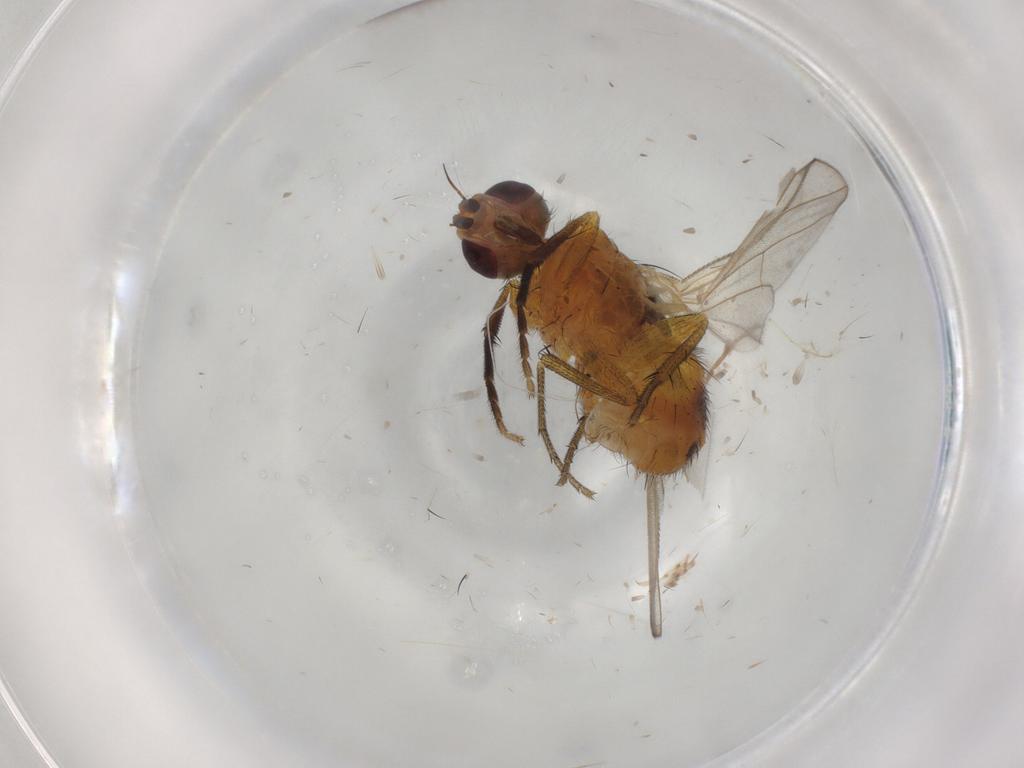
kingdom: Animalia
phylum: Arthropoda
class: Insecta
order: Diptera
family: Muscidae
